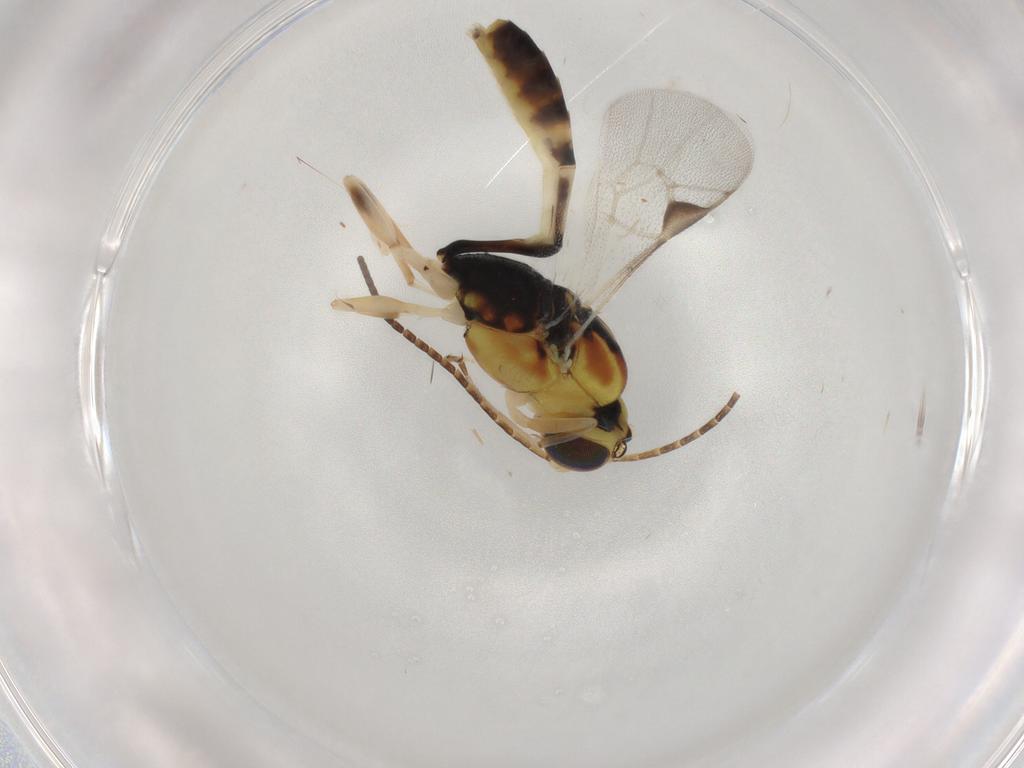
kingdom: Animalia
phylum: Arthropoda
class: Insecta
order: Hymenoptera
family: Ichneumonidae
